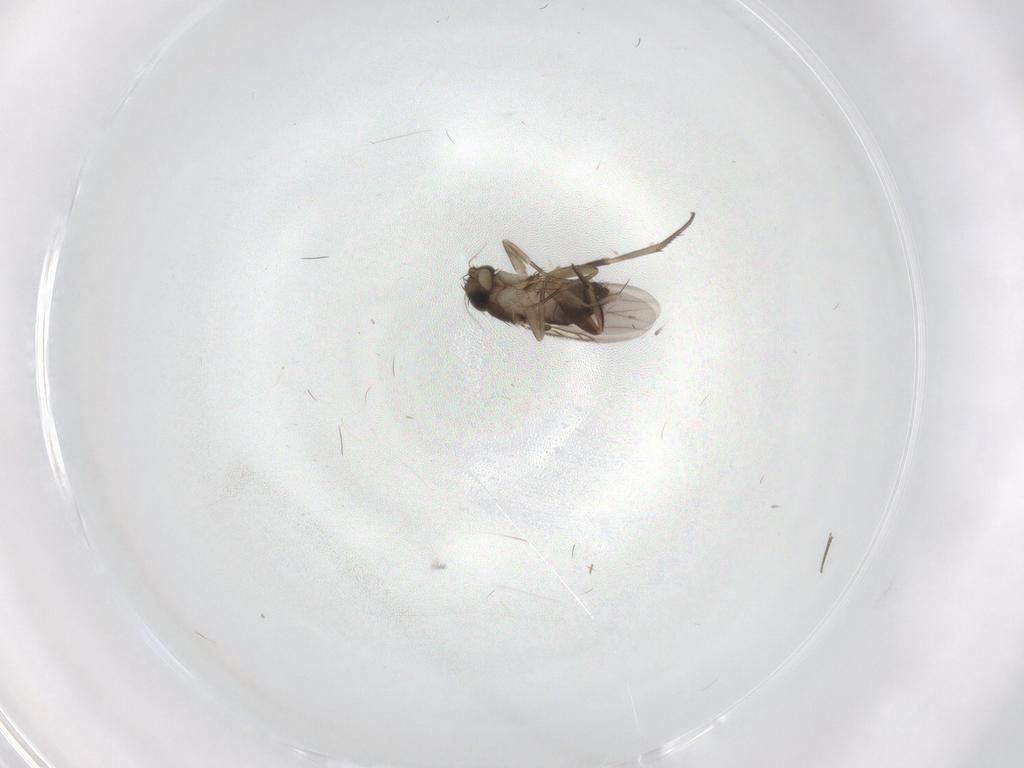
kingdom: Animalia
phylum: Arthropoda
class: Insecta
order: Diptera
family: Phoridae
